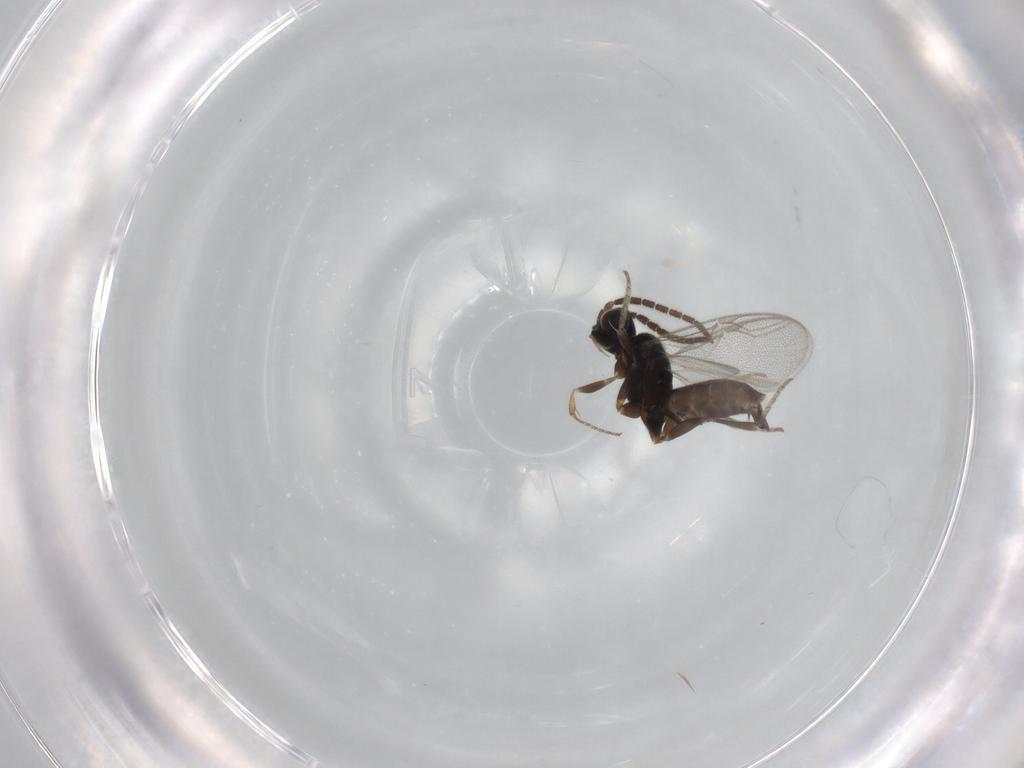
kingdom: Animalia
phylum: Arthropoda
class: Insecta
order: Hymenoptera
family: Dryinidae
